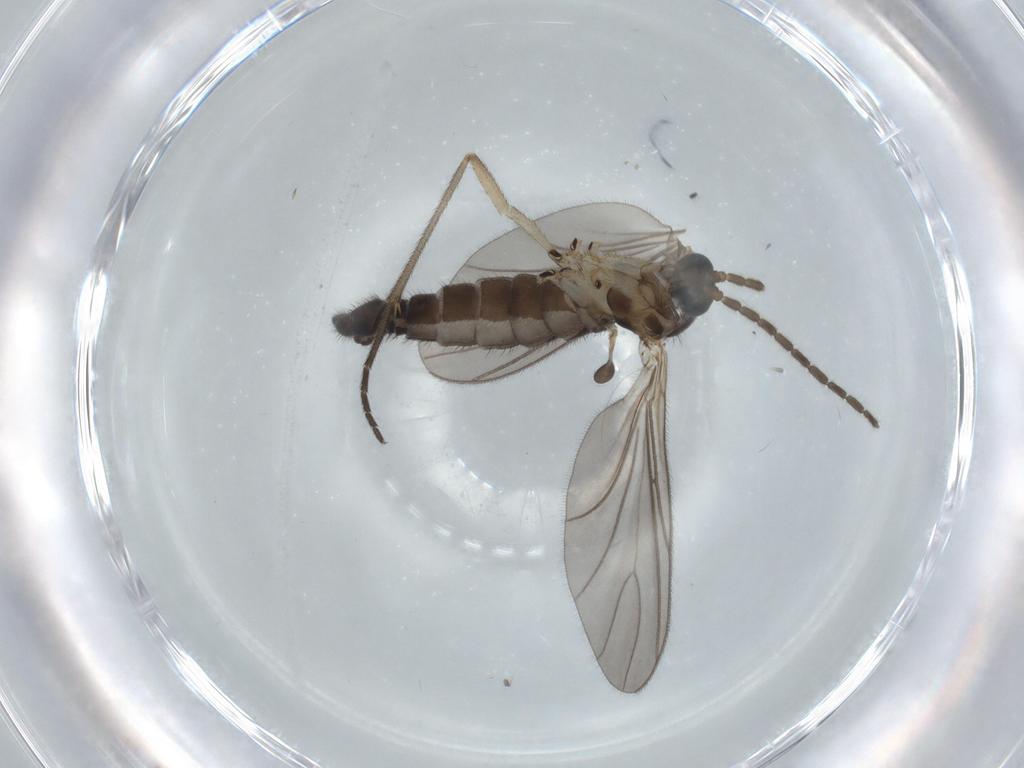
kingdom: Animalia
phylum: Arthropoda
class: Insecta
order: Diptera
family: Sciaridae
